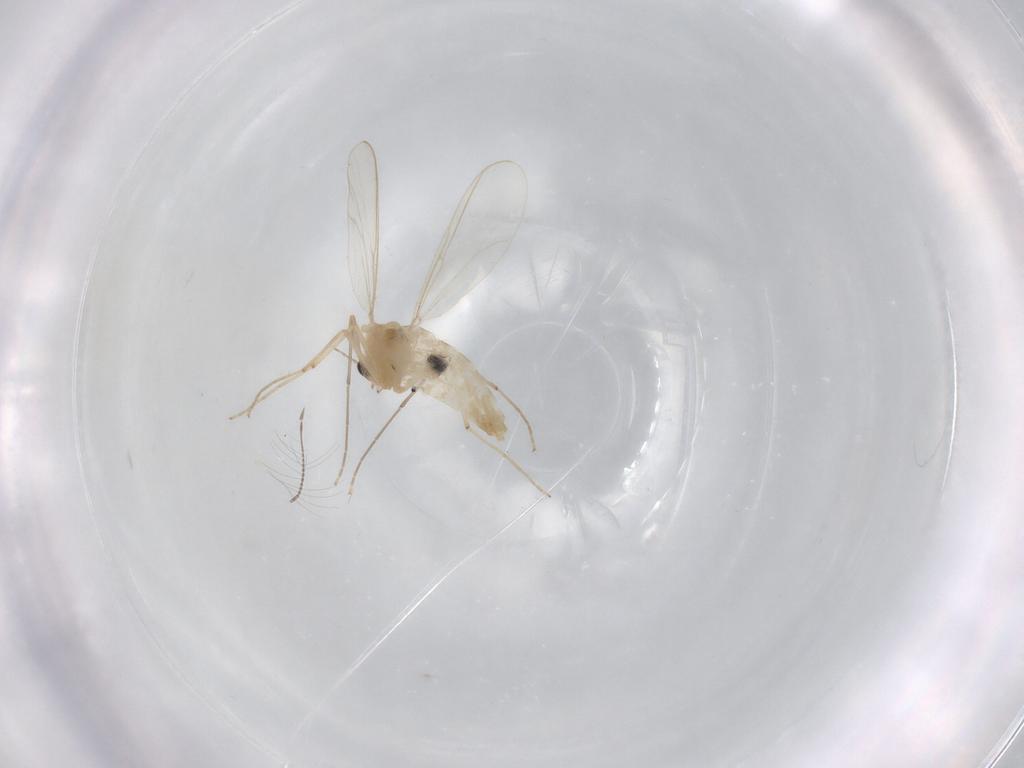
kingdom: Animalia
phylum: Arthropoda
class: Insecta
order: Diptera
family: Chironomidae
